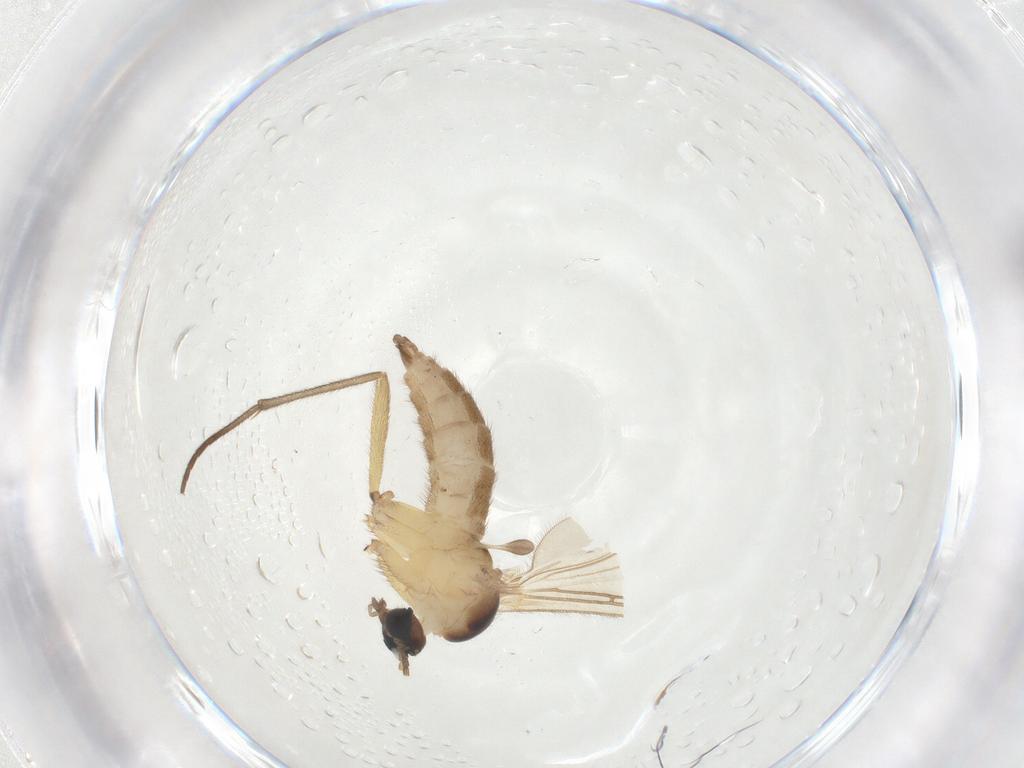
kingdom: Animalia
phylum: Arthropoda
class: Insecta
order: Diptera
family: Sciaridae
